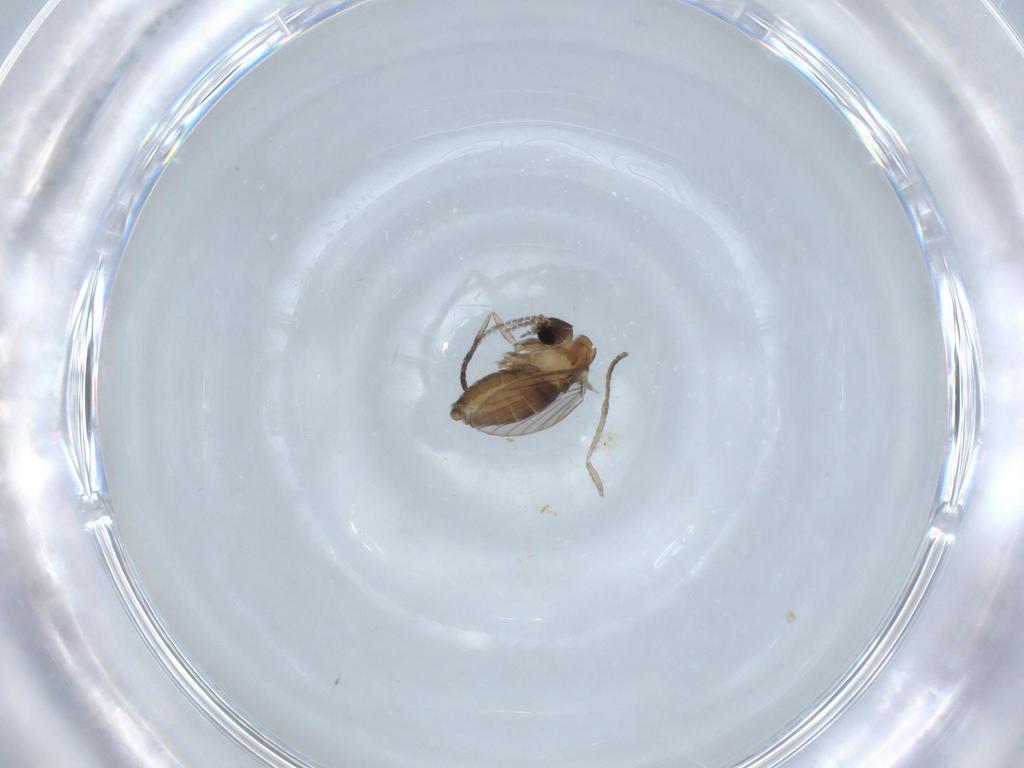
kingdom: Animalia
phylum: Arthropoda
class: Insecta
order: Diptera
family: Psychodidae
